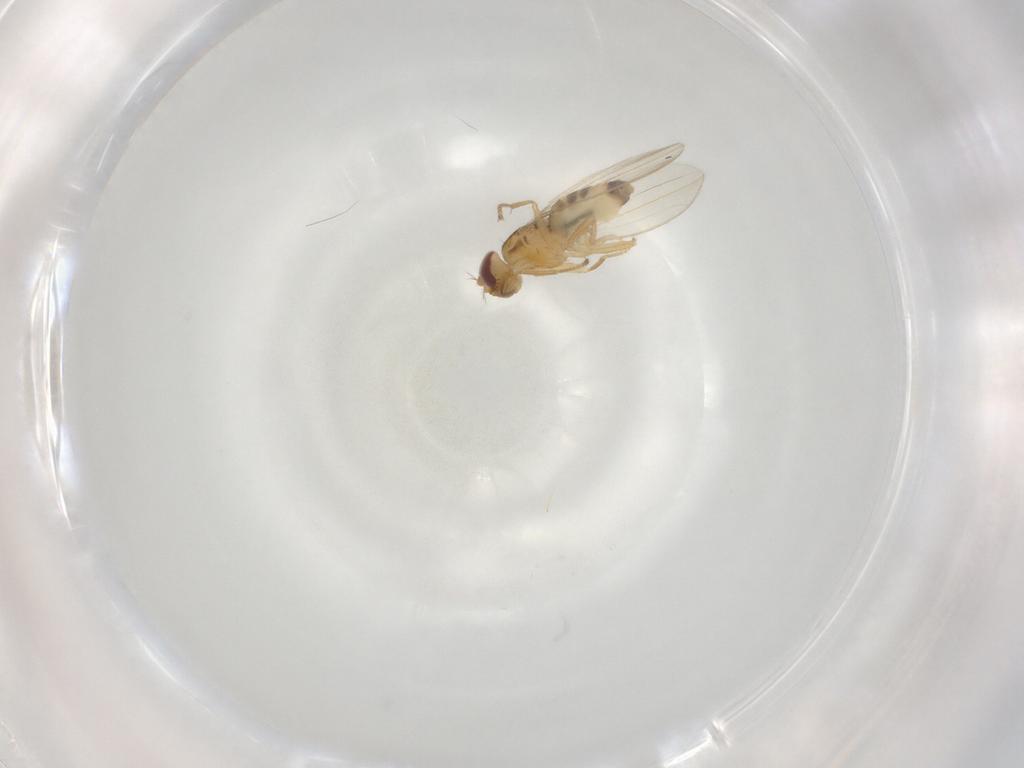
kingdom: Animalia
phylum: Arthropoda
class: Insecta
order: Diptera
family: Periscelididae
